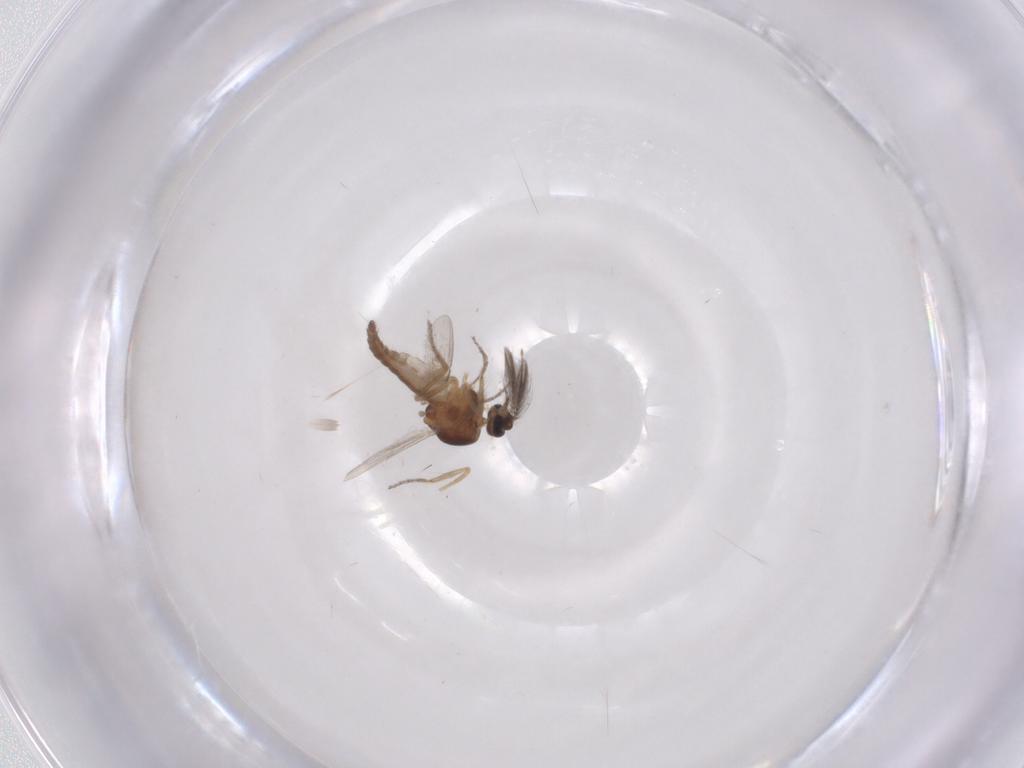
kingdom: Animalia
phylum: Arthropoda
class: Insecta
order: Diptera
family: Ceratopogonidae
